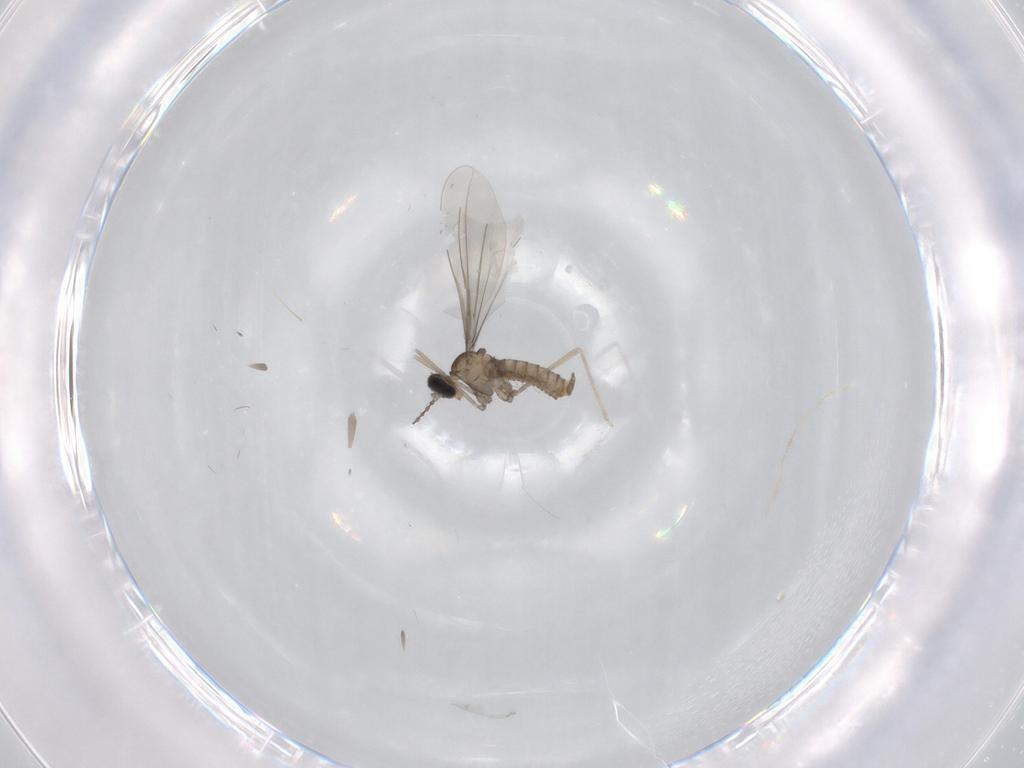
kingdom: Animalia
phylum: Arthropoda
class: Insecta
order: Diptera
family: Cecidomyiidae
